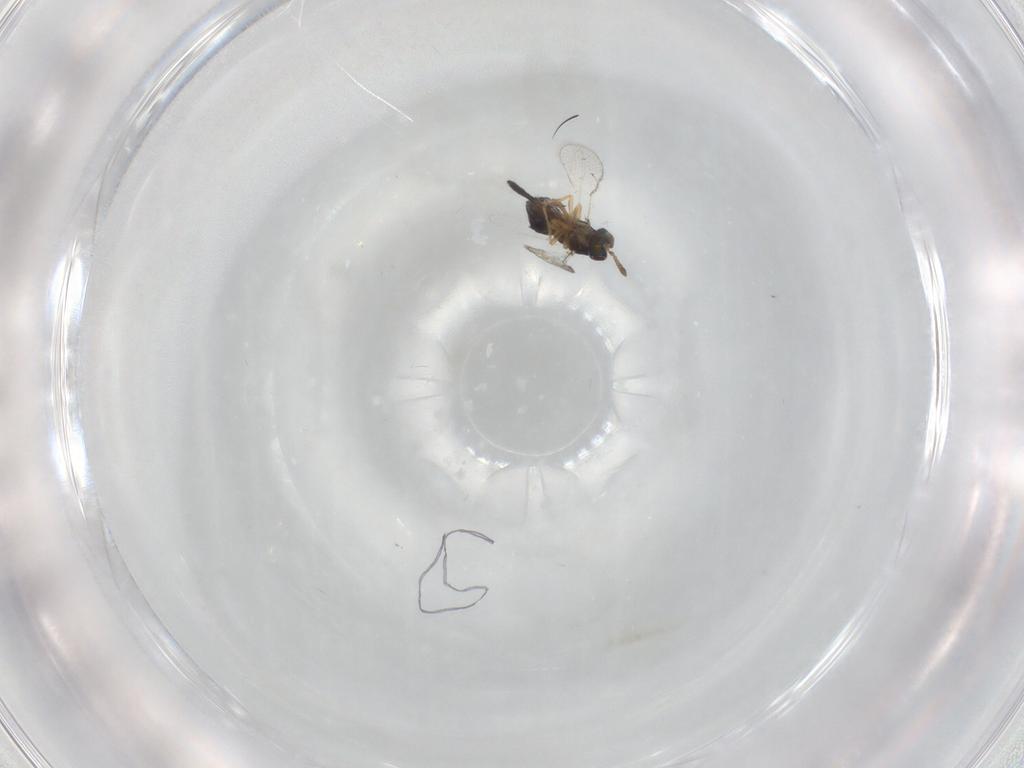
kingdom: Animalia
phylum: Arthropoda
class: Insecta
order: Hymenoptera
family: Torymidae
